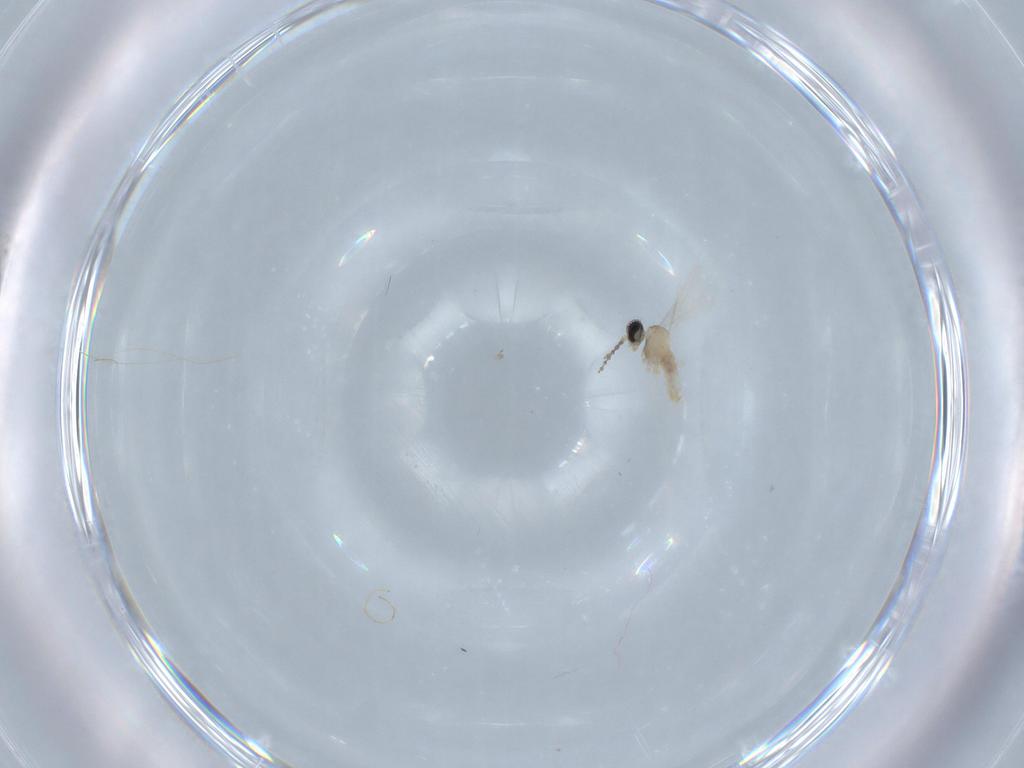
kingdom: Animalia
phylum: Arthropoda
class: Insecta
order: Diptera
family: Cecidomyiidae
